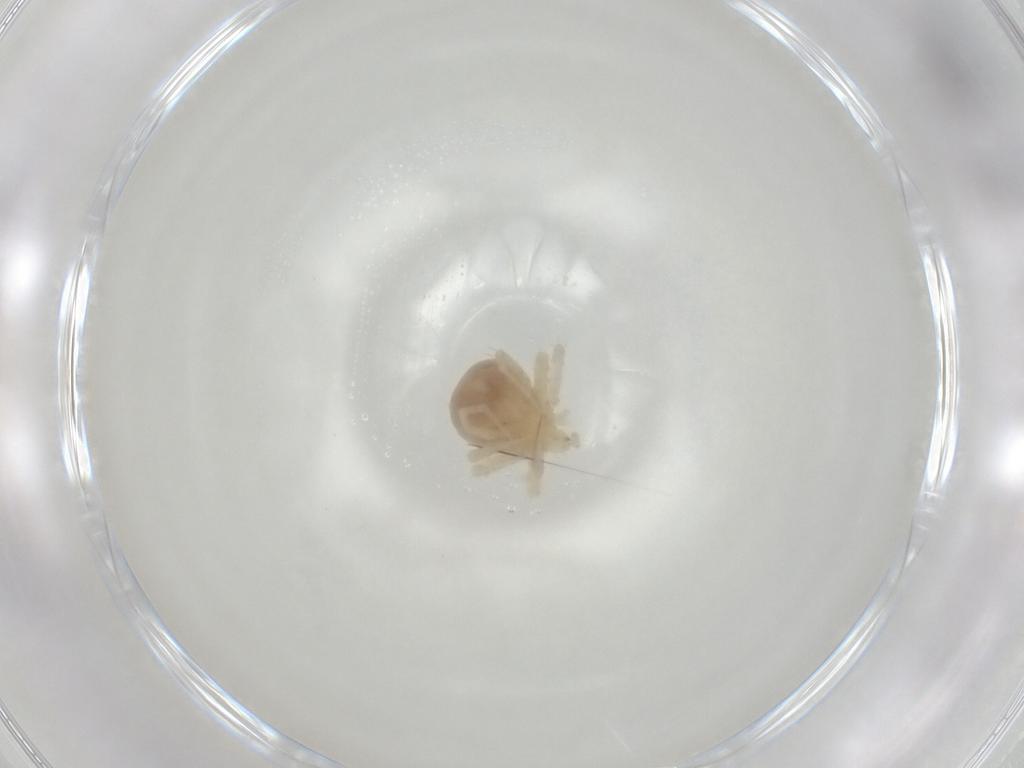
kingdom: Animalia
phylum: Arthropoda
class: Arachnida
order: Trombidiformes
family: Anystidae
